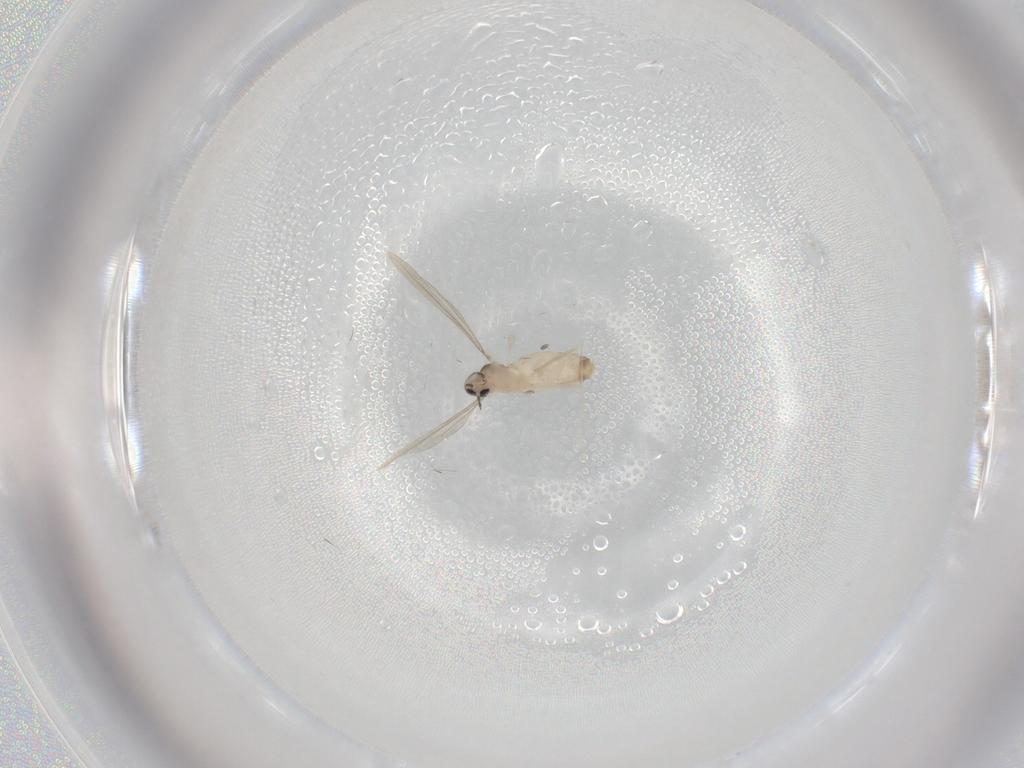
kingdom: Animalia
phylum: Arthropoda
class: Insecta
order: Diptera
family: Cecidomyiidae
